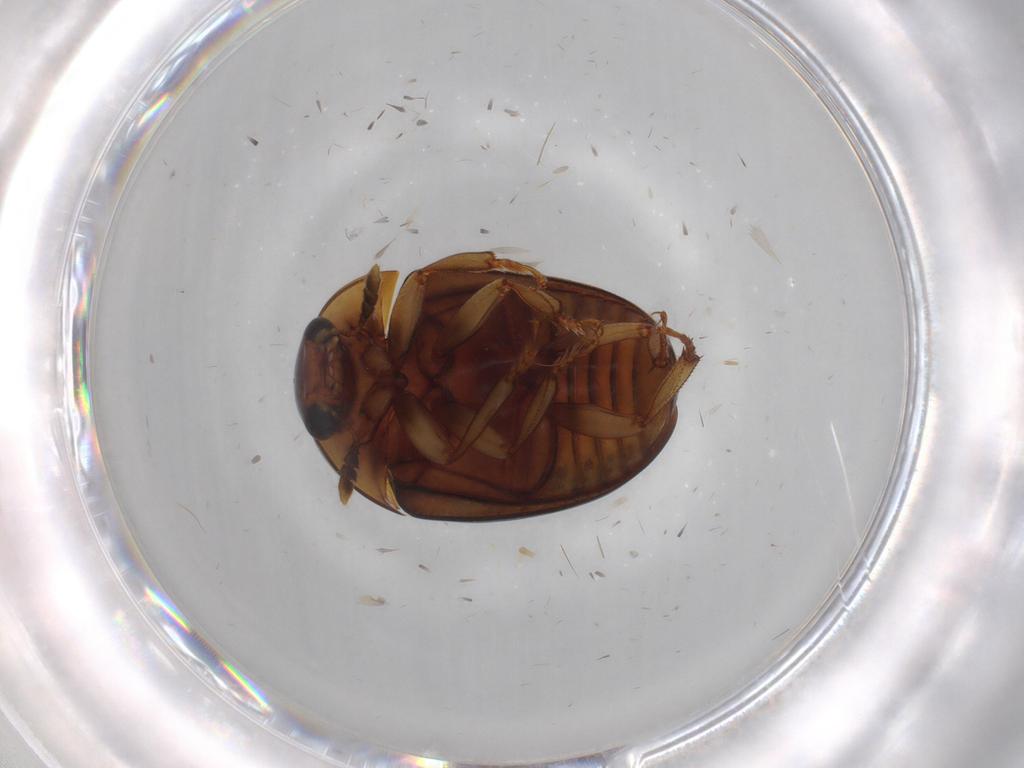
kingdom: Animalia
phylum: Arthropoda
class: Insecta
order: Coleoptera
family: Nitidulidae
